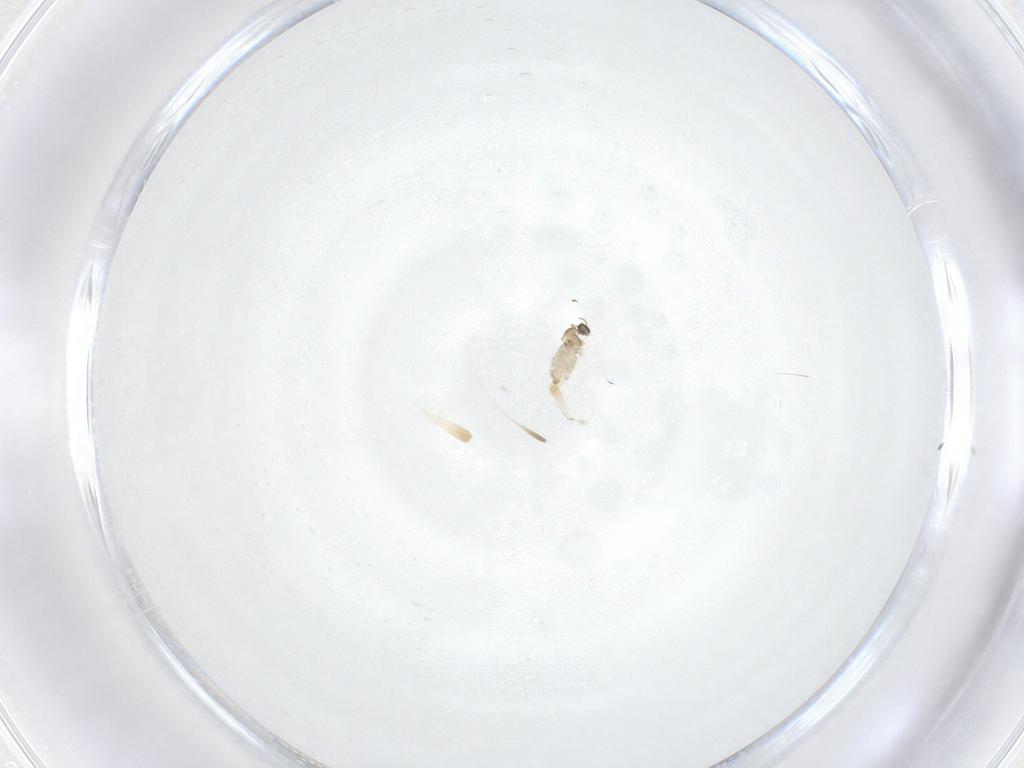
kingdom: Animalia
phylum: Arthropoda
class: Insecta
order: Diptera
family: Cecidomyiidae
